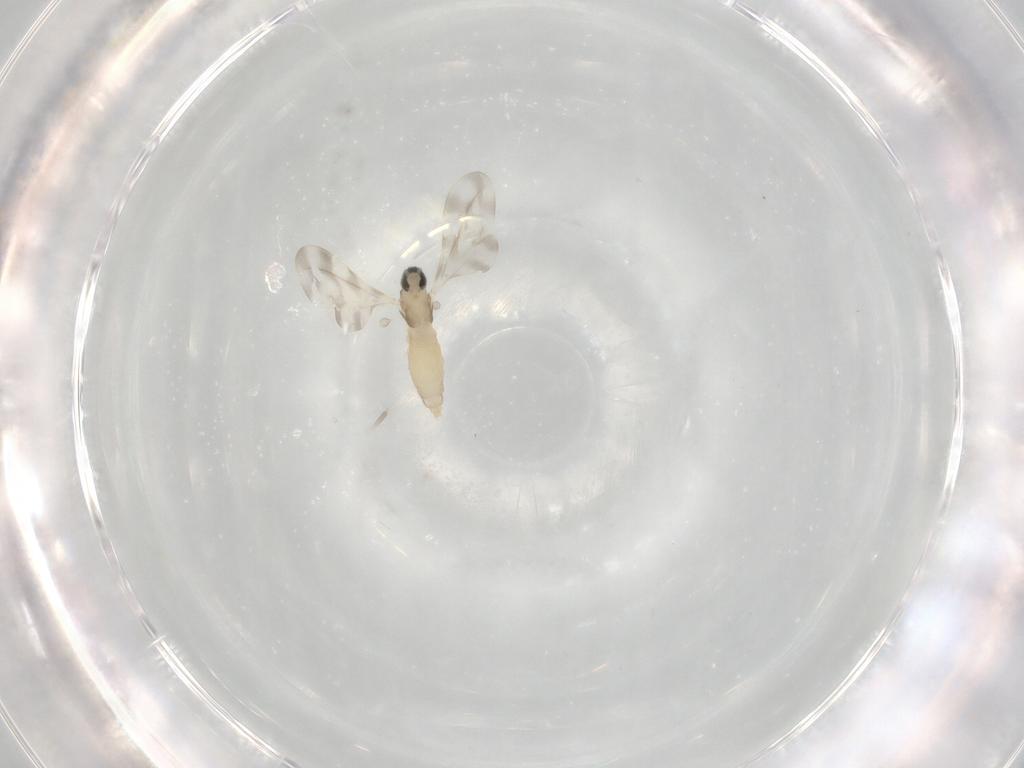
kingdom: Animalia
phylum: Arthropoda
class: Insecta
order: Diptera
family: Cecidomyiidae
